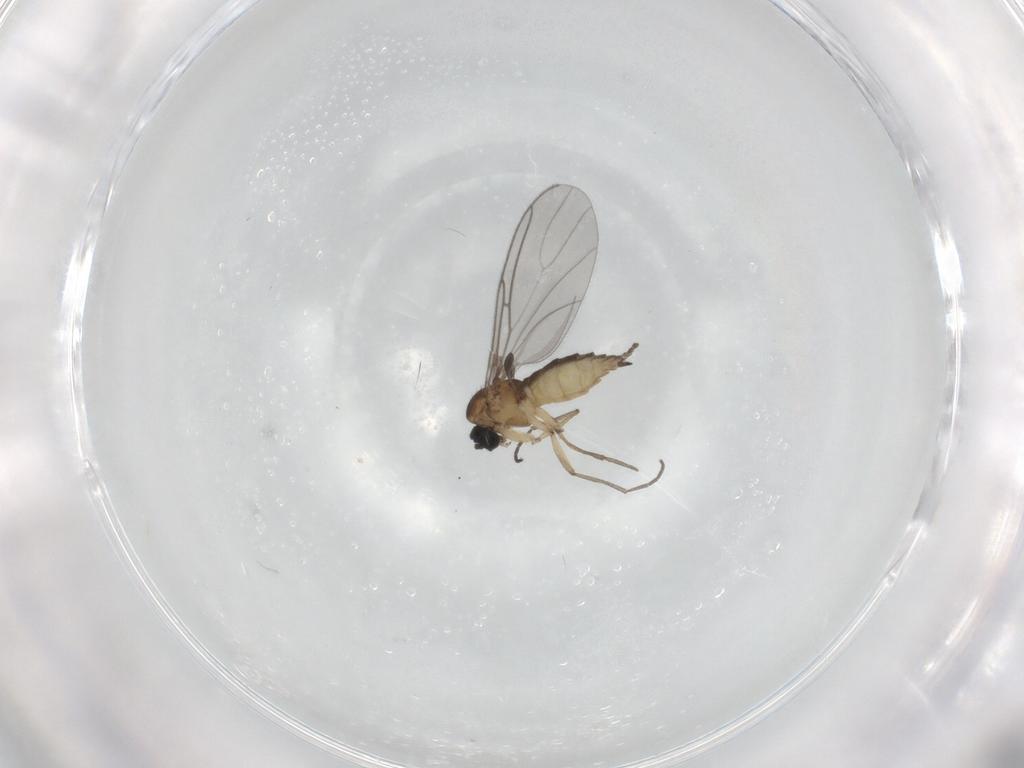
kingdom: Animalia
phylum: Arthropoda
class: Insecta
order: Diptera
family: Sciaridae
